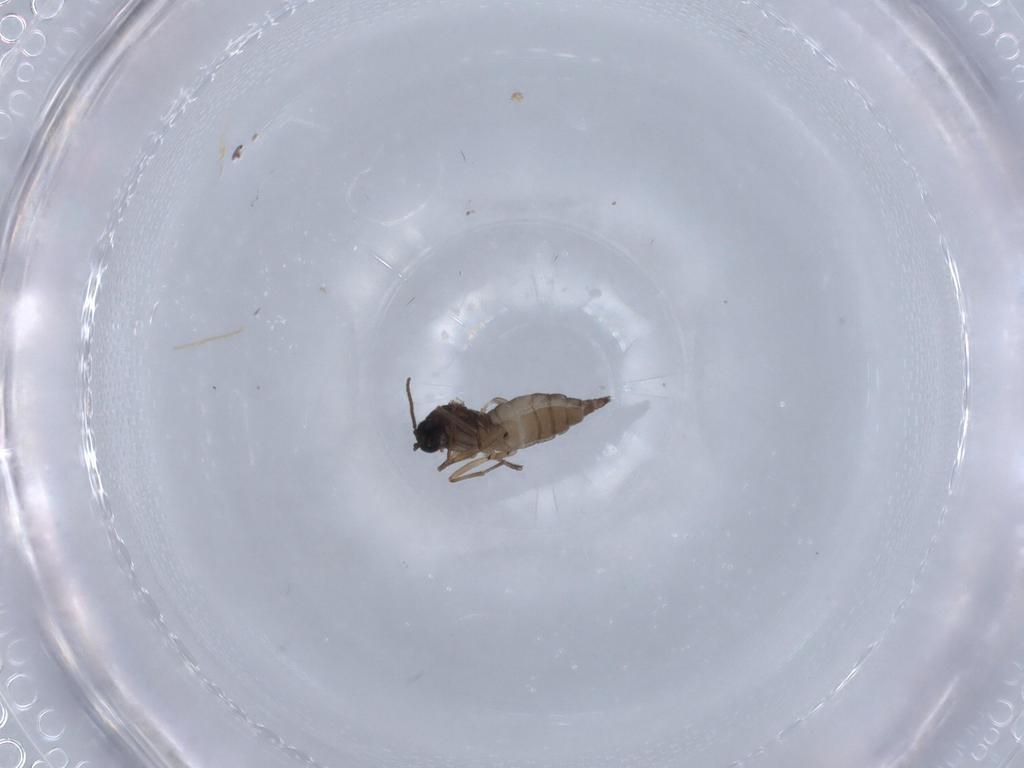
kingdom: Animalia
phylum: Arthropoda
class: Insecta
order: Diptera
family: Sciaridae
